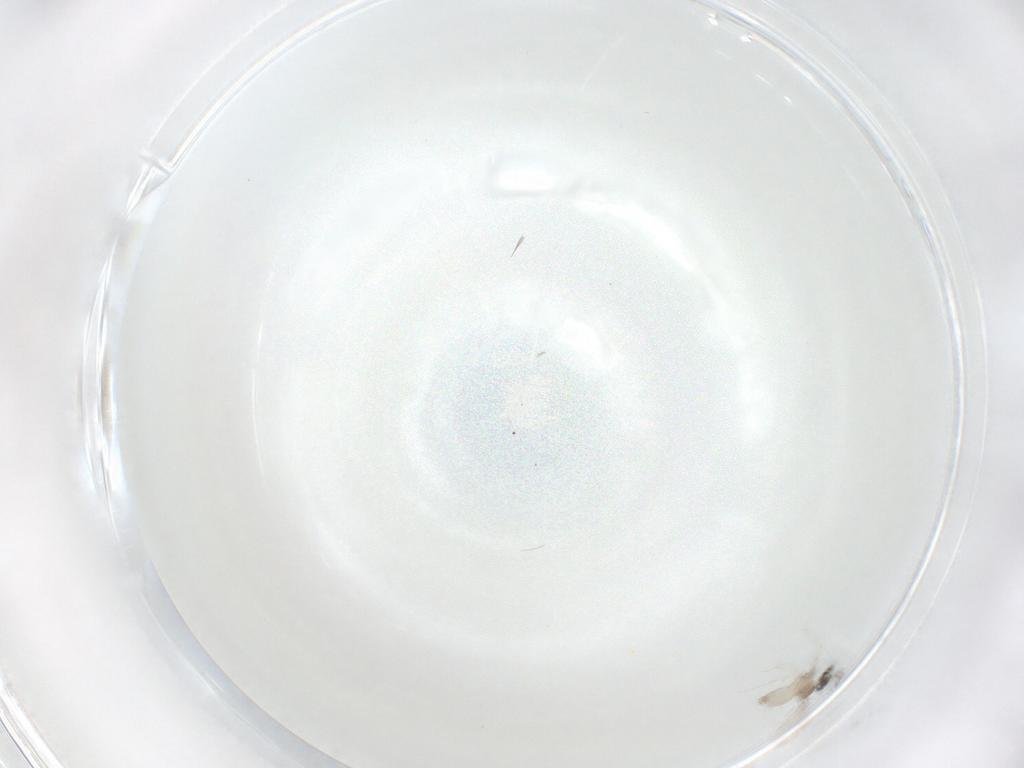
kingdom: Animalia
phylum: Arthropoda
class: Insecta
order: Diptera
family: Cecidomyiidae
